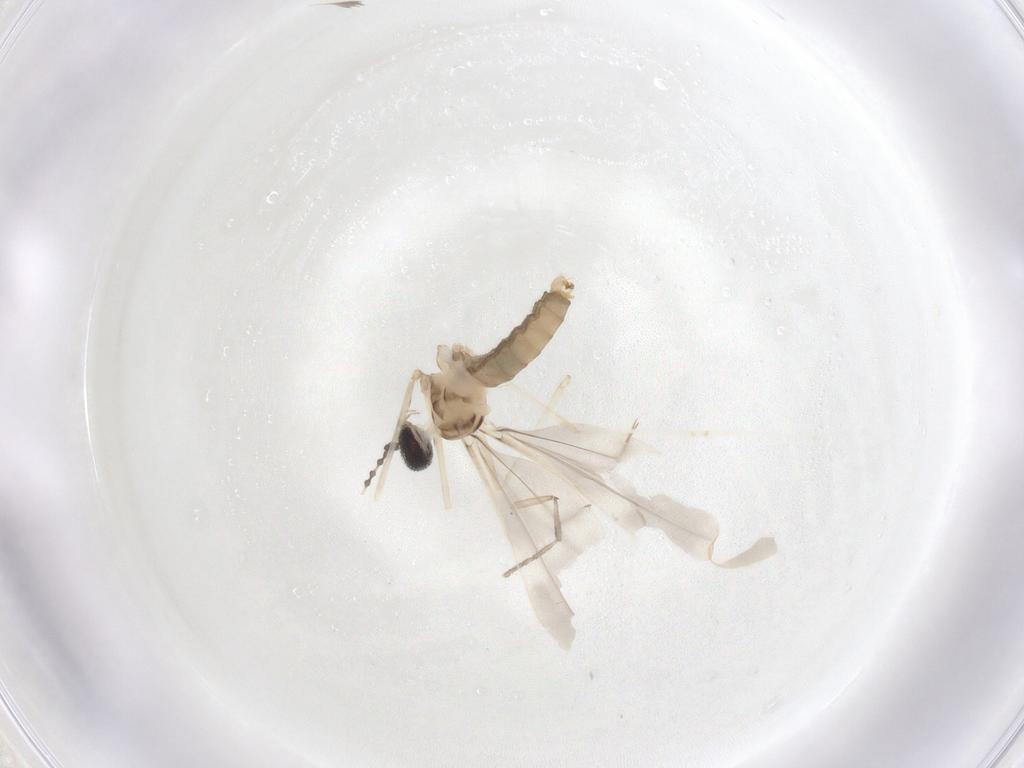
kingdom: Animalia
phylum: Arthropoda
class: Insecta
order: Diptera
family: Cecidomyiidae
